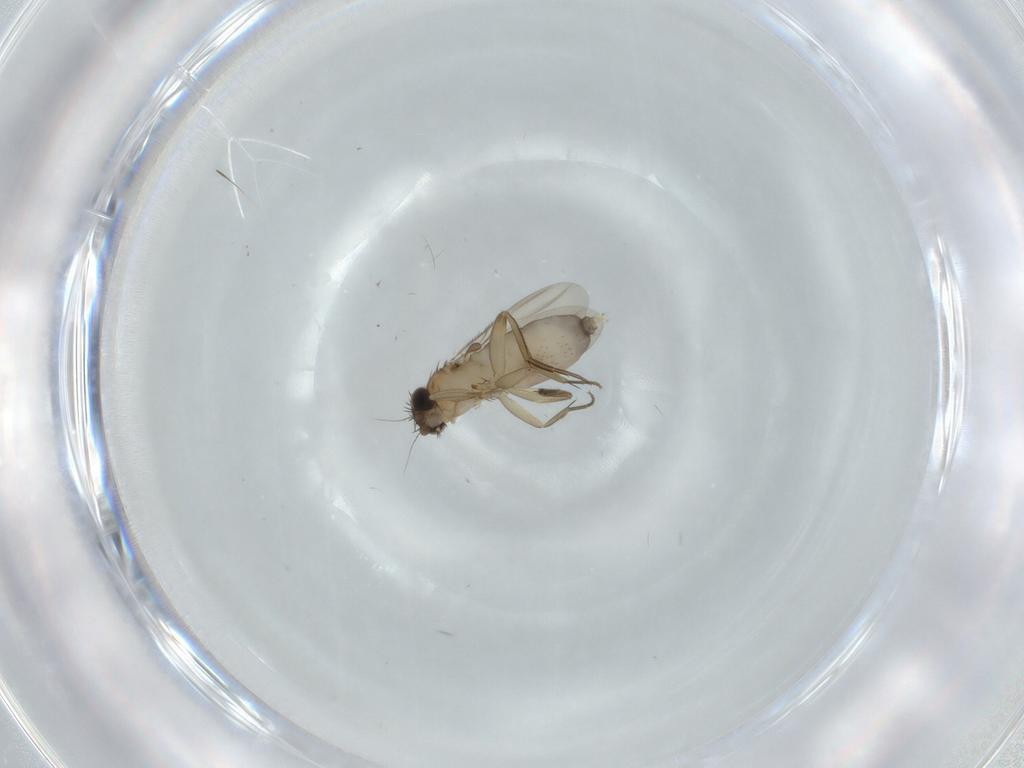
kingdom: Animalia
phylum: Arthropoda
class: Insecta
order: Diptera
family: Phoridae
